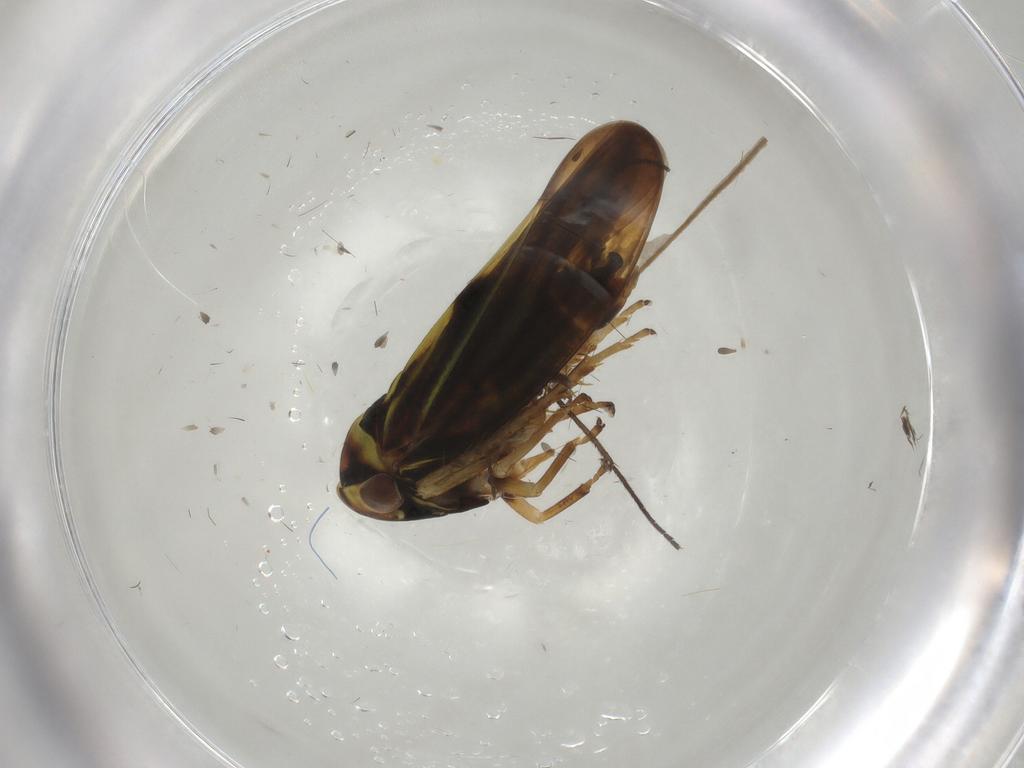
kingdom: Animalia
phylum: Arthropoda
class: Insecta
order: Hemiptera
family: Cicadellidae
